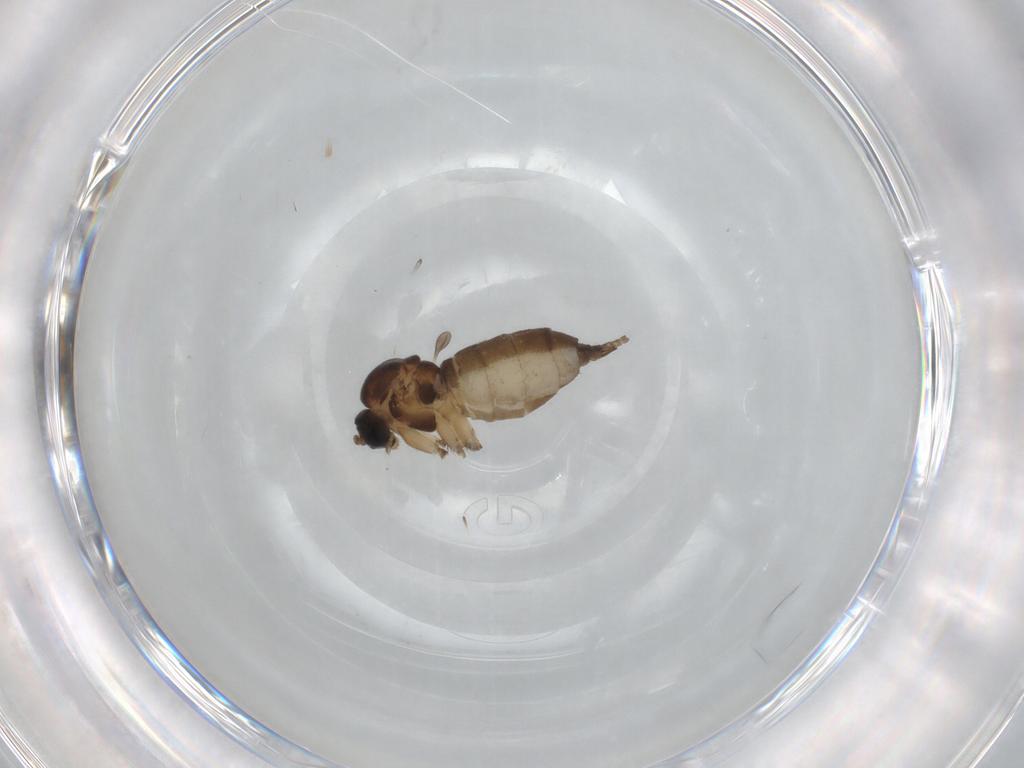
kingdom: Animalia
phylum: Arthropoda
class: Insecta
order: Diptera
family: Sciaridae
